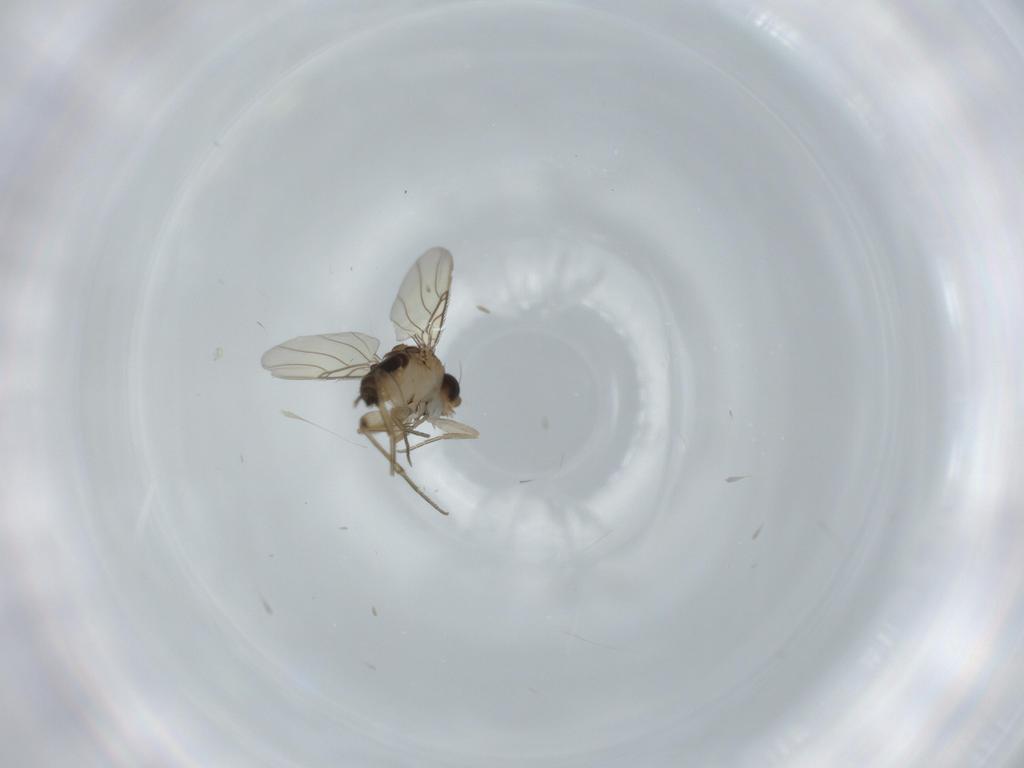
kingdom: Animalia
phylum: Arthropoda
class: Insecta
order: Diptera
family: Phoridae
